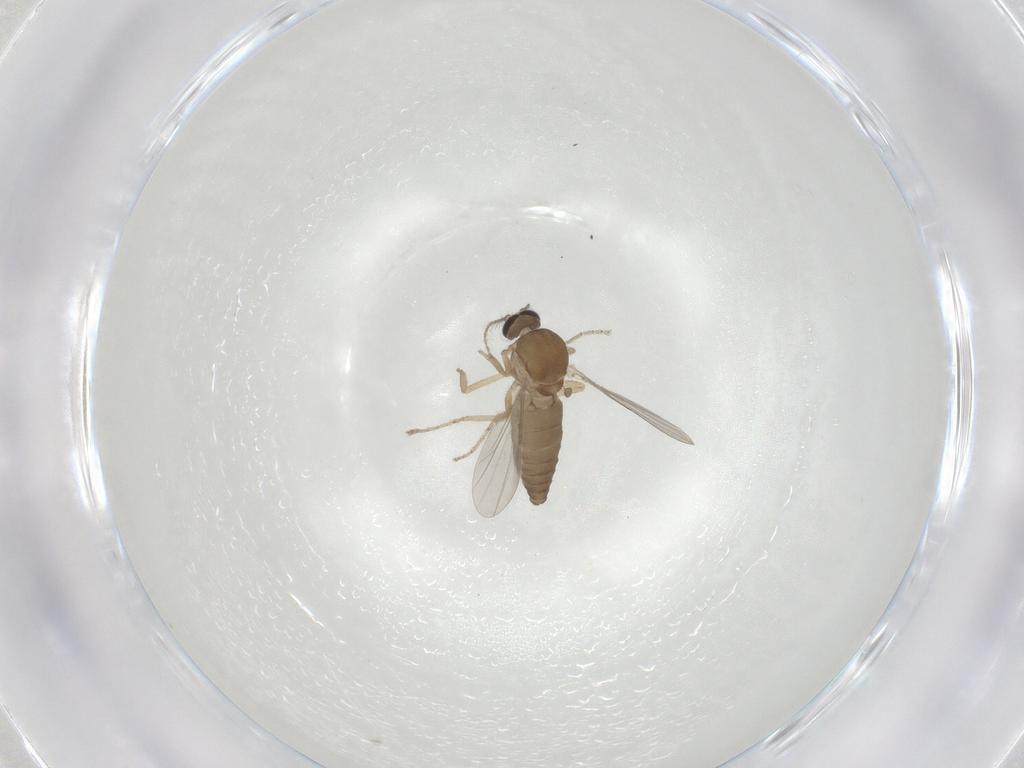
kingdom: Animalia
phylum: Arthropoda
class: Insecta
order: Diptera
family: Ceratopogonidae
